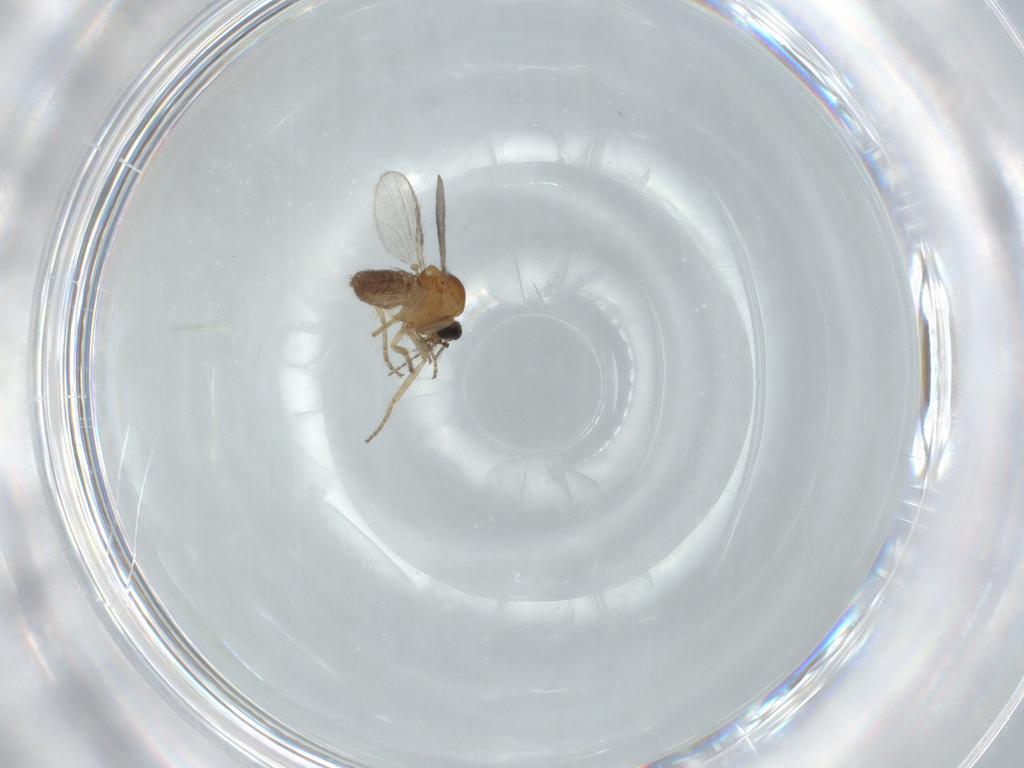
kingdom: Animalia
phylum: Arthropoda
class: Insecta
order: Diptera
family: Ceratopogonidae
